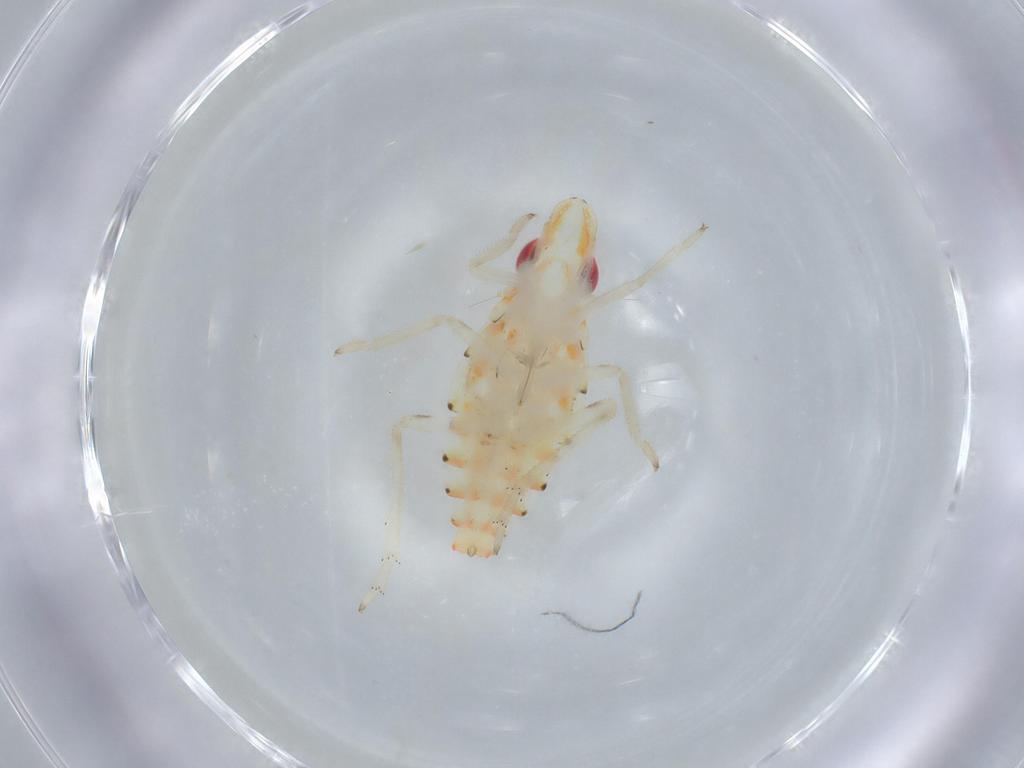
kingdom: Animalia
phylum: Arthropoda
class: Insecta
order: Hemiptera
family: Tropiduchidae
